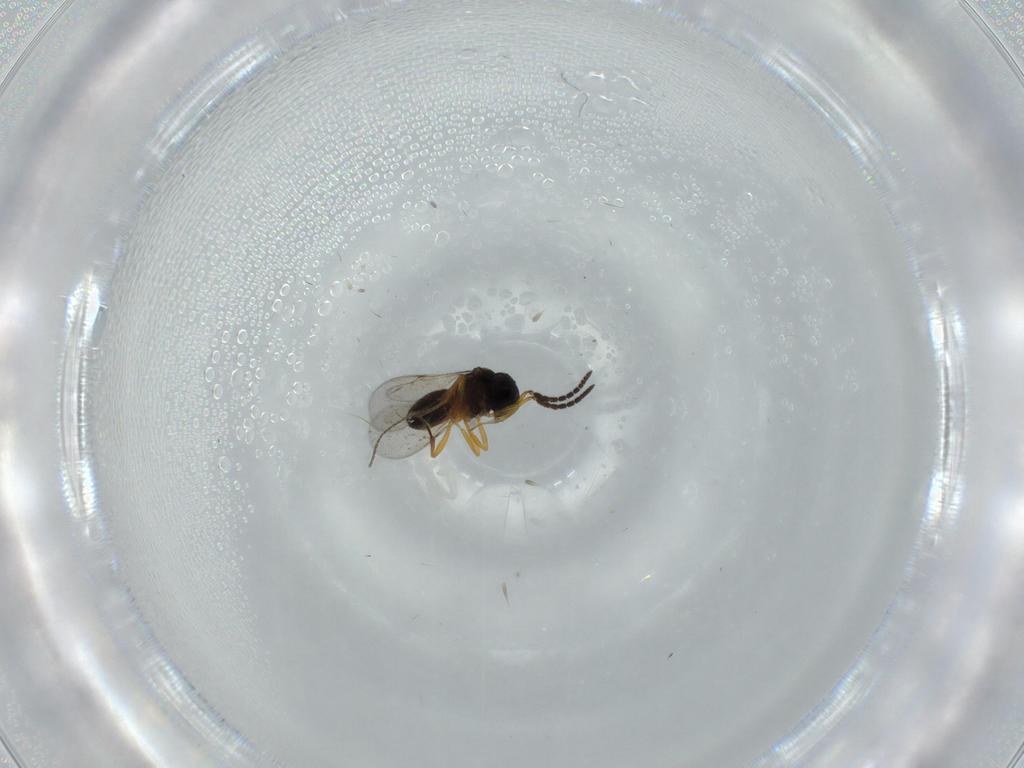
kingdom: Animalia
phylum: Arthropoda
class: Insecta
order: Coleoptera
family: Curculionidae
